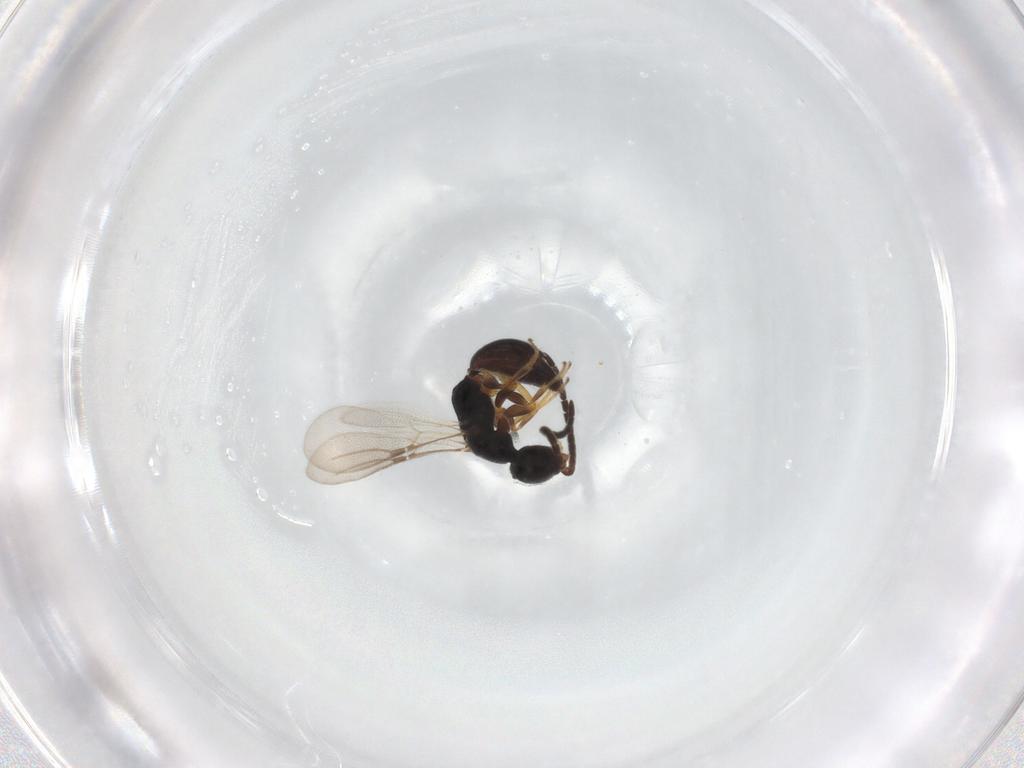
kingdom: Animalia
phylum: Arthropoda
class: Insecta
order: Hymenoptera
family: Bethylidae
